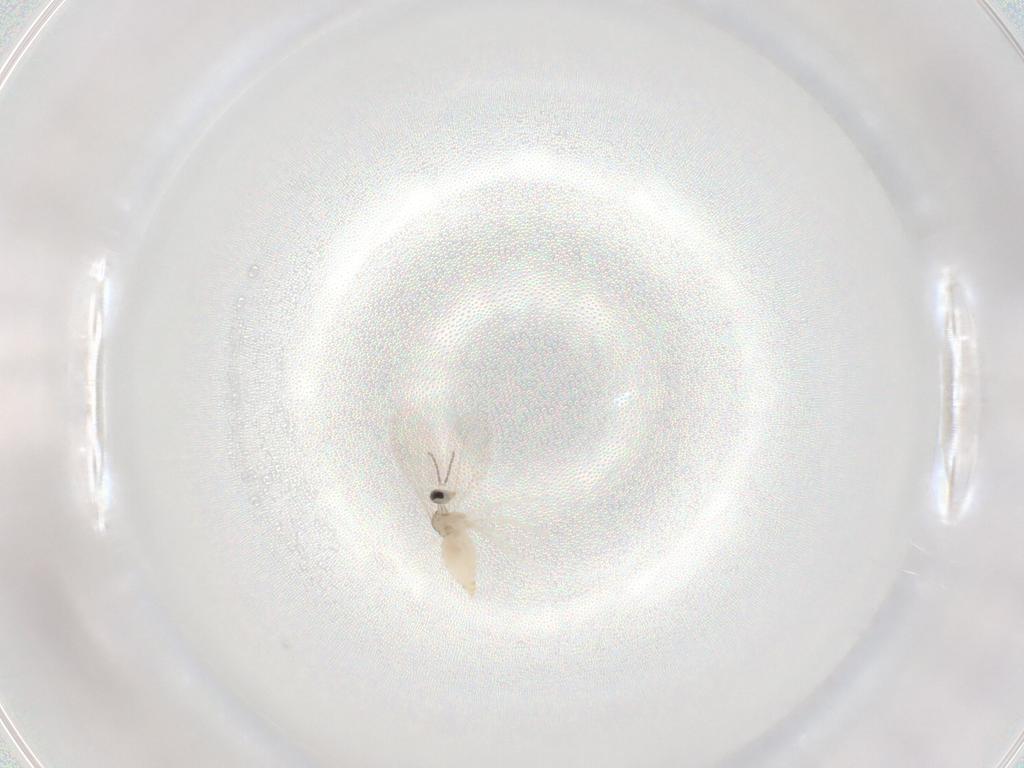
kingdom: Animalia
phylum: Arthropoda
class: Insecta
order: Diptera
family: Cecidomyiidae
